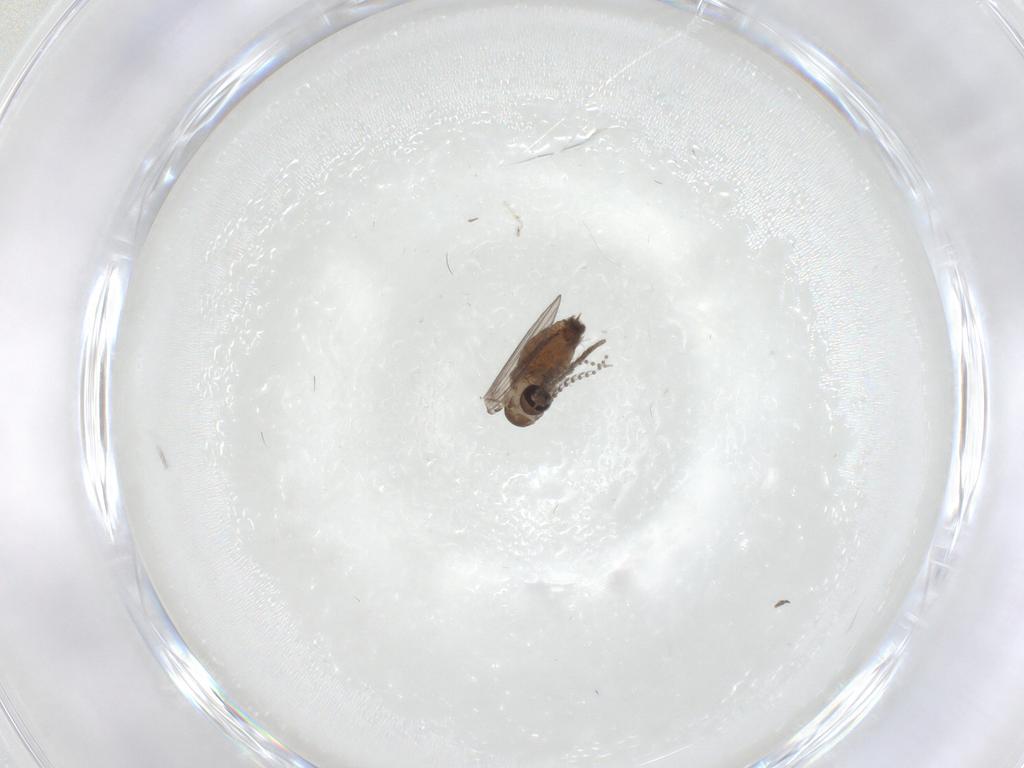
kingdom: Animalia
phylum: Arthropoda
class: Insecta
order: Diptera
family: Psychodidae
